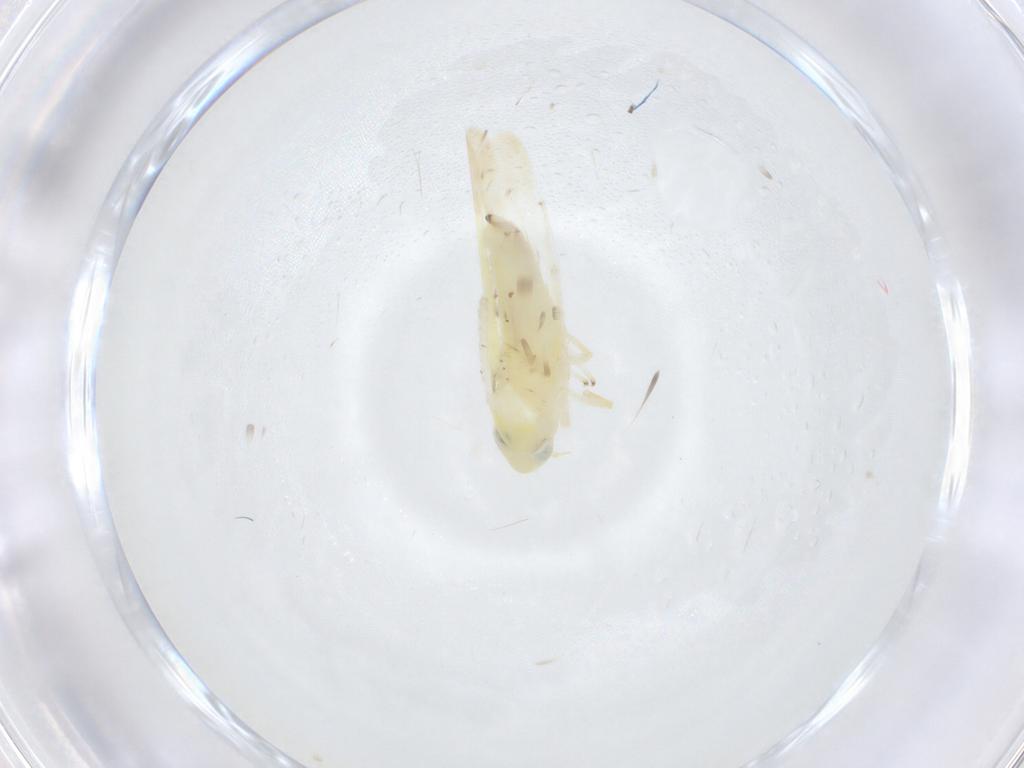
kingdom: Animalia
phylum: Arthropoda
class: Insecta
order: Hemiptera
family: Cicadellidae
